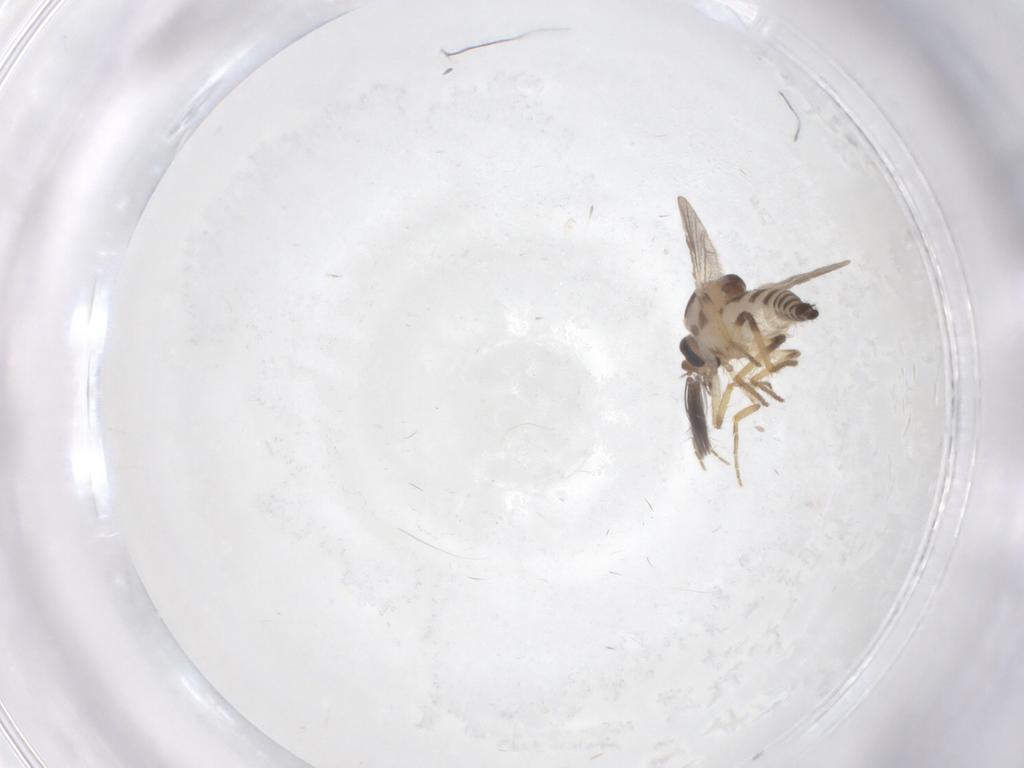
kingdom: Animalia
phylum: Arthropoda
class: Insecta
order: Diptera
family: Ceratopogonidae
